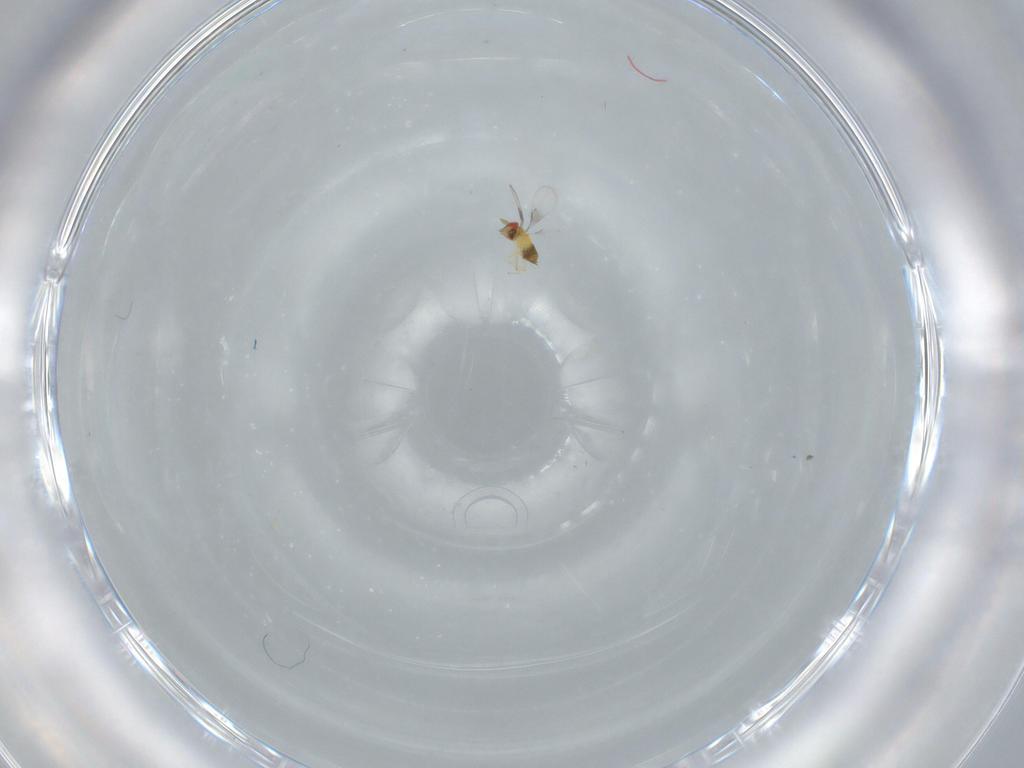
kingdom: Animalia
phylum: Arthropoda
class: Insecta
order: Hymenoptera
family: Trichogrammatidae
